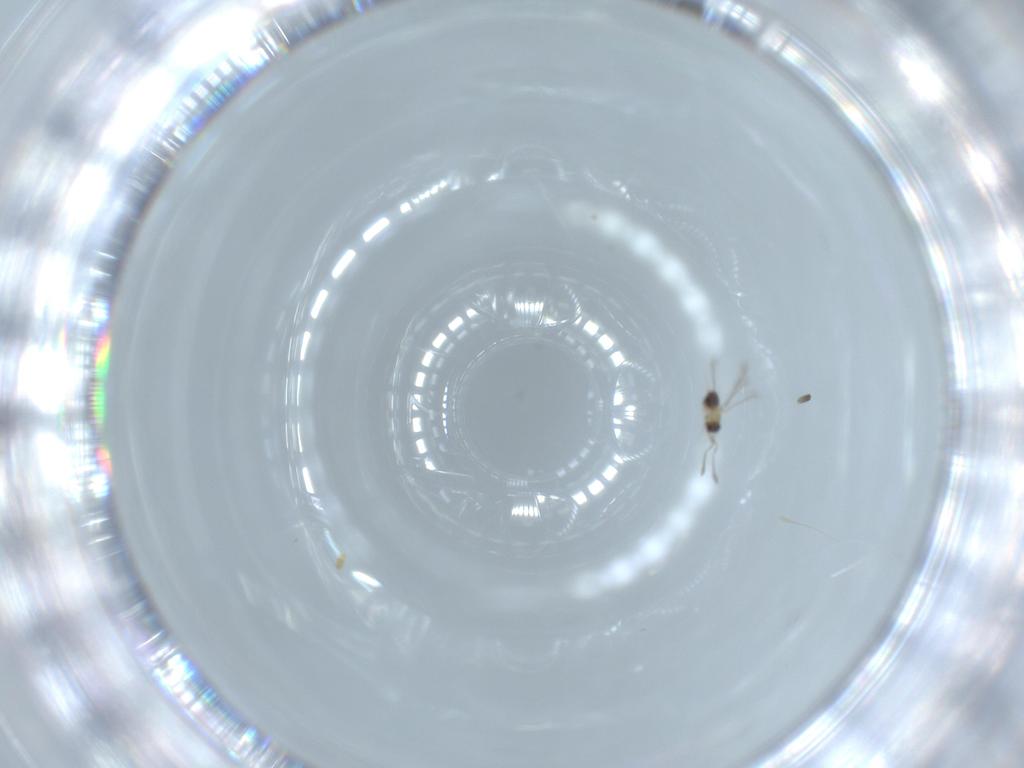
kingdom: Animalia
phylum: Arthropoda
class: Insecta
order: Hymenoptera
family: Mymaridae
